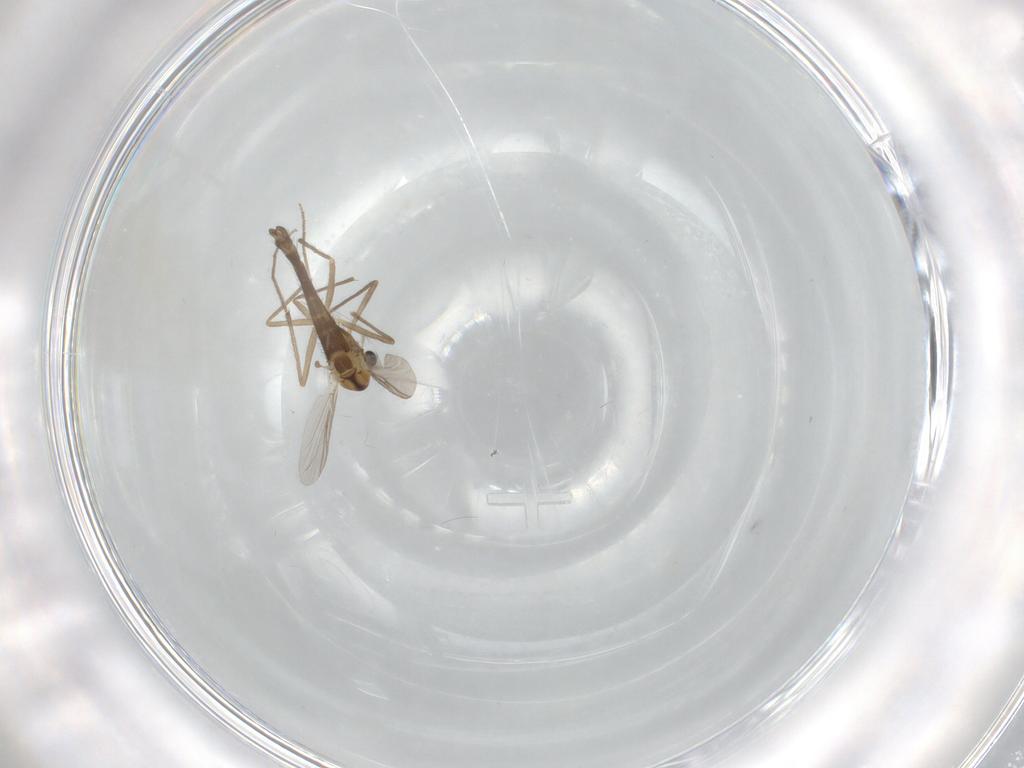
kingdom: Animalia
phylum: Arthropoda
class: Insecta
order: Diptera
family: Chironomidae
